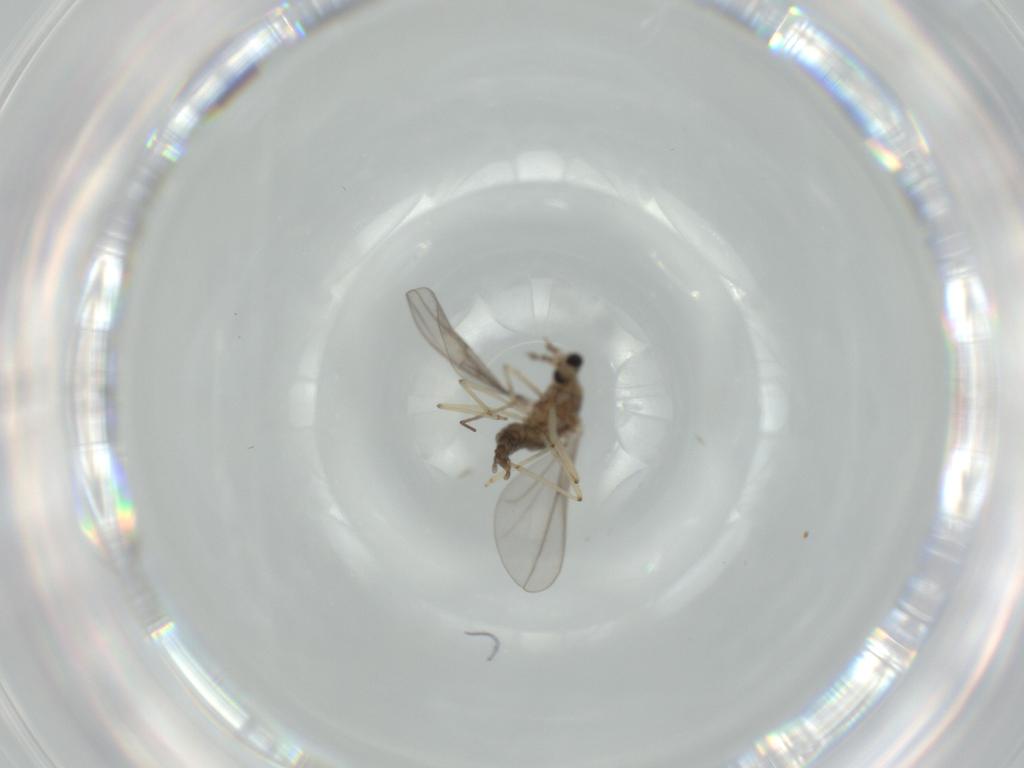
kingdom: Animalia
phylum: Arthropoda
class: Insecta
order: Diptera
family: Cecidomyiidae
